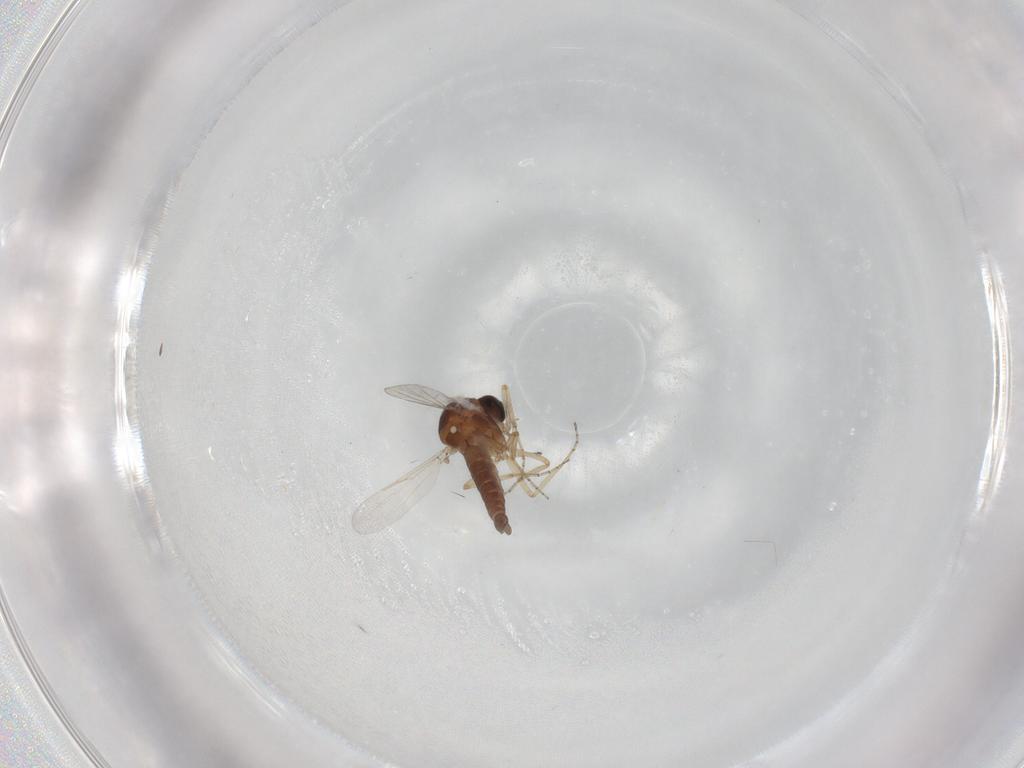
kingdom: Animalia
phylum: Arthropoda
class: Insecta
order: Diptera
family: Ceratopogonidae
